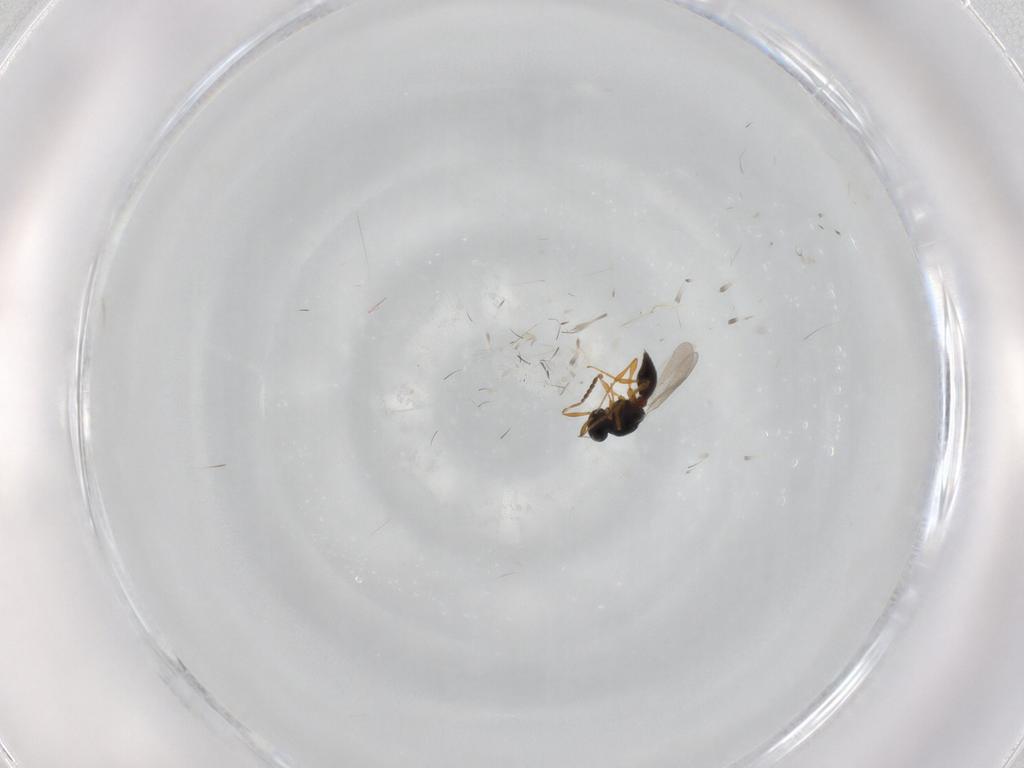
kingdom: Animalia
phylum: Arthropoda
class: Insecta
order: Hymenoptera
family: Platygastridae
